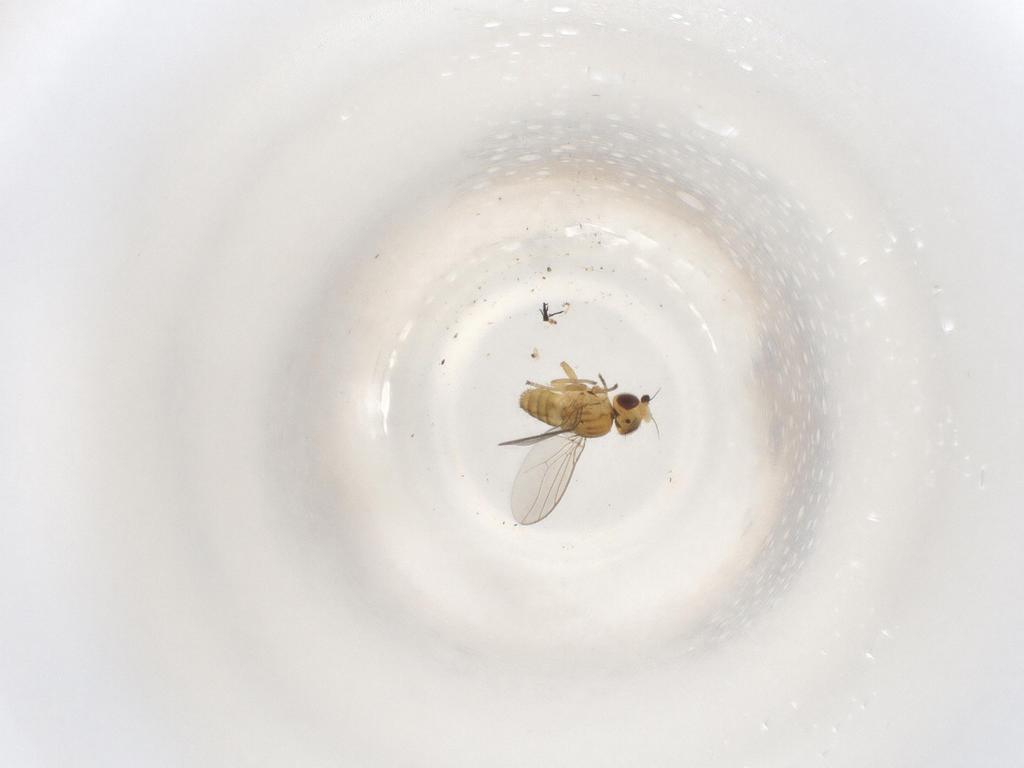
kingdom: Animalia
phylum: Arthropoda
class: Insecta
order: Diptera
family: Chloropidae
